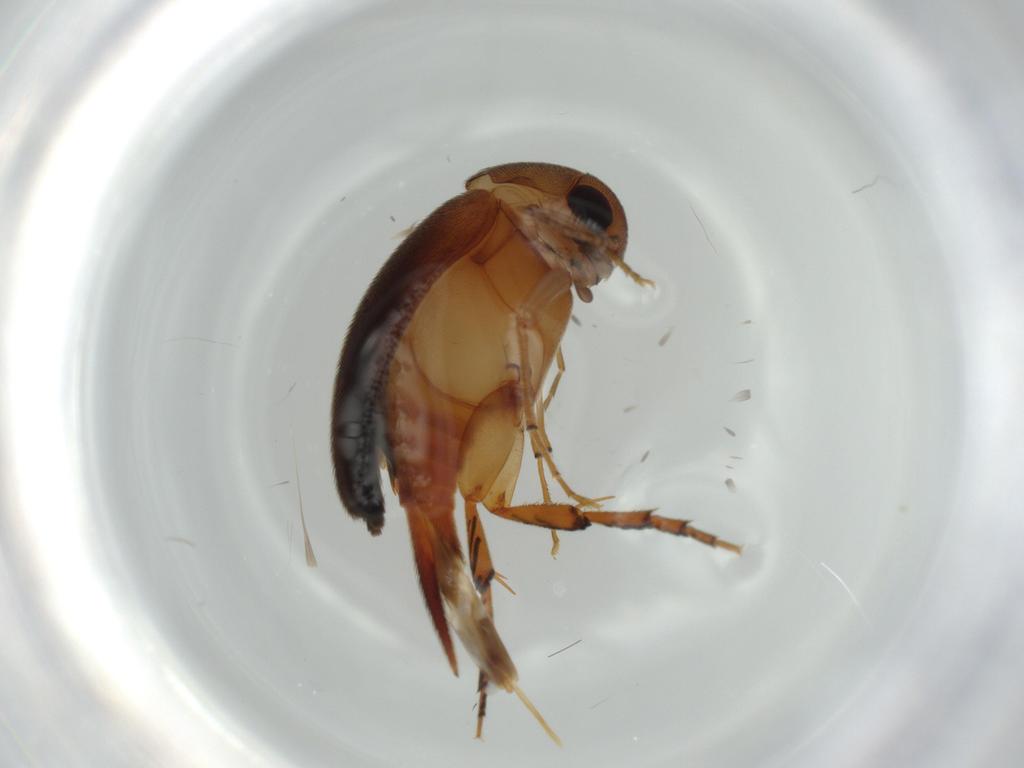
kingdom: Animalia
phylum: Arthropoda
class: Insecta
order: Coleoptera
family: Mordellidae
